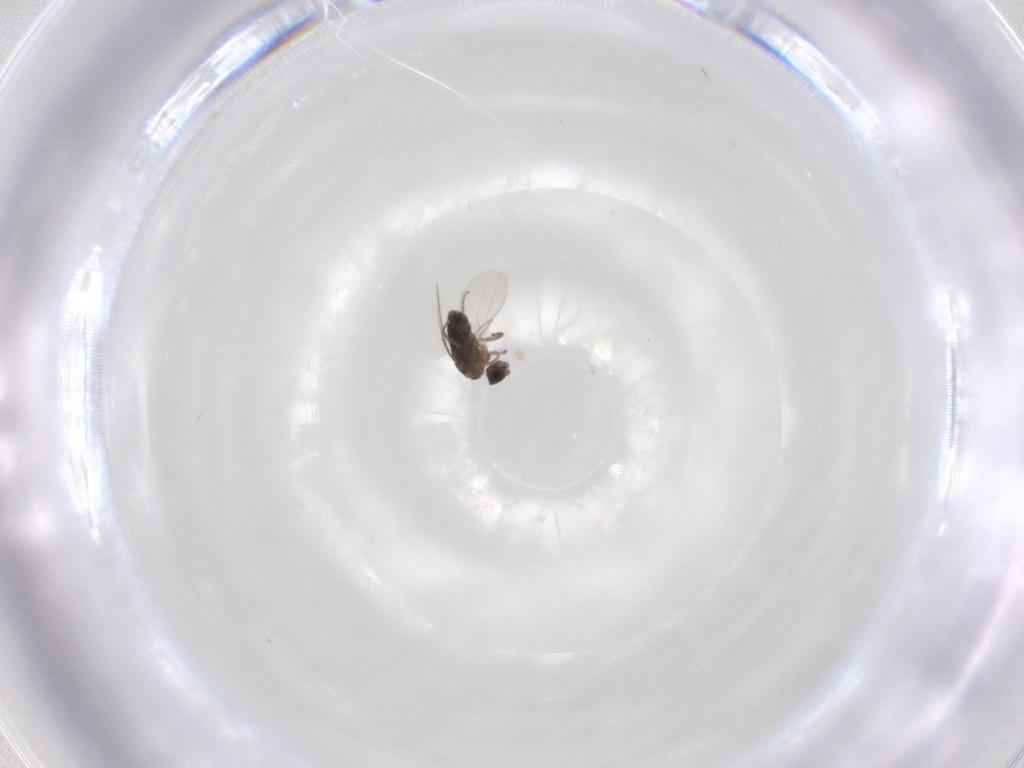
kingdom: Animalia
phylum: Arthropoda
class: Insecta
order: Diptera
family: Phoridae
